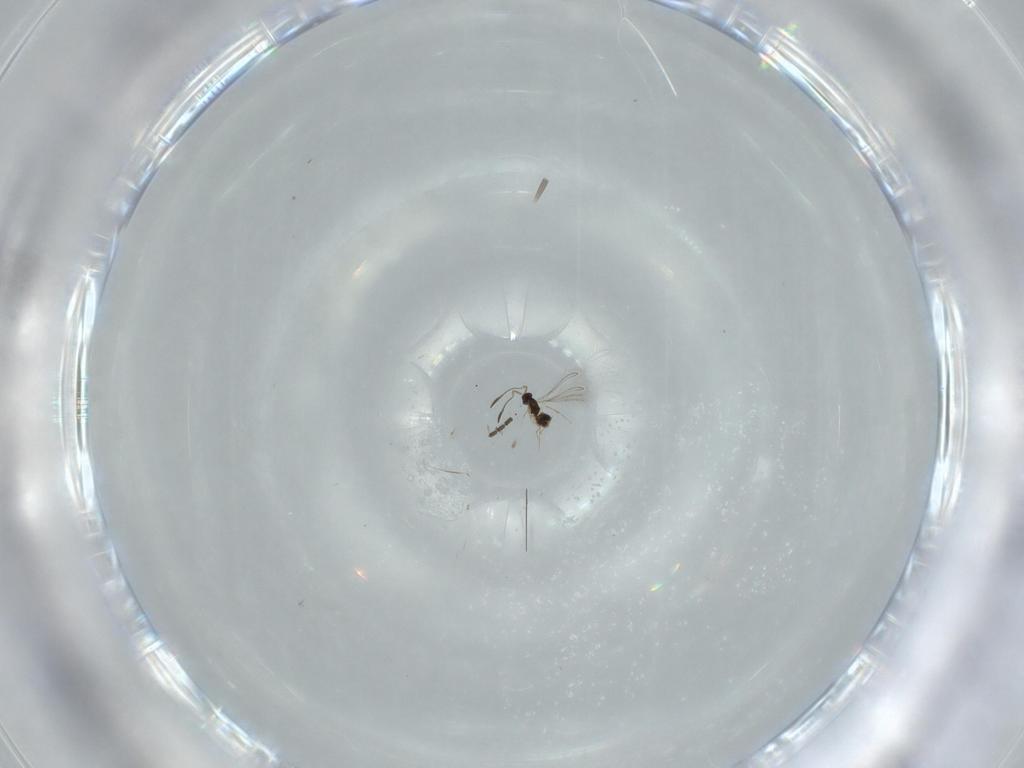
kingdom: Animalia
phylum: Arthropoda
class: Insecta
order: Hymenoptera
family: Mymaridae
